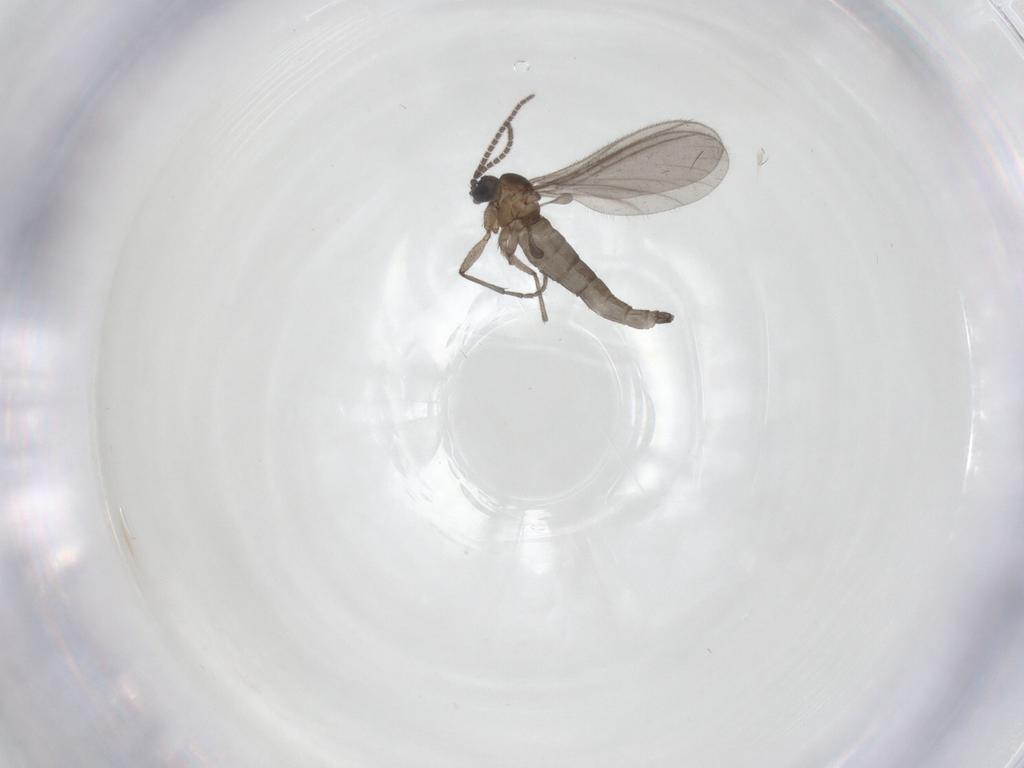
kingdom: Animalia
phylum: Arthropoda
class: Insecta
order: Diptera
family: Sciaridae
